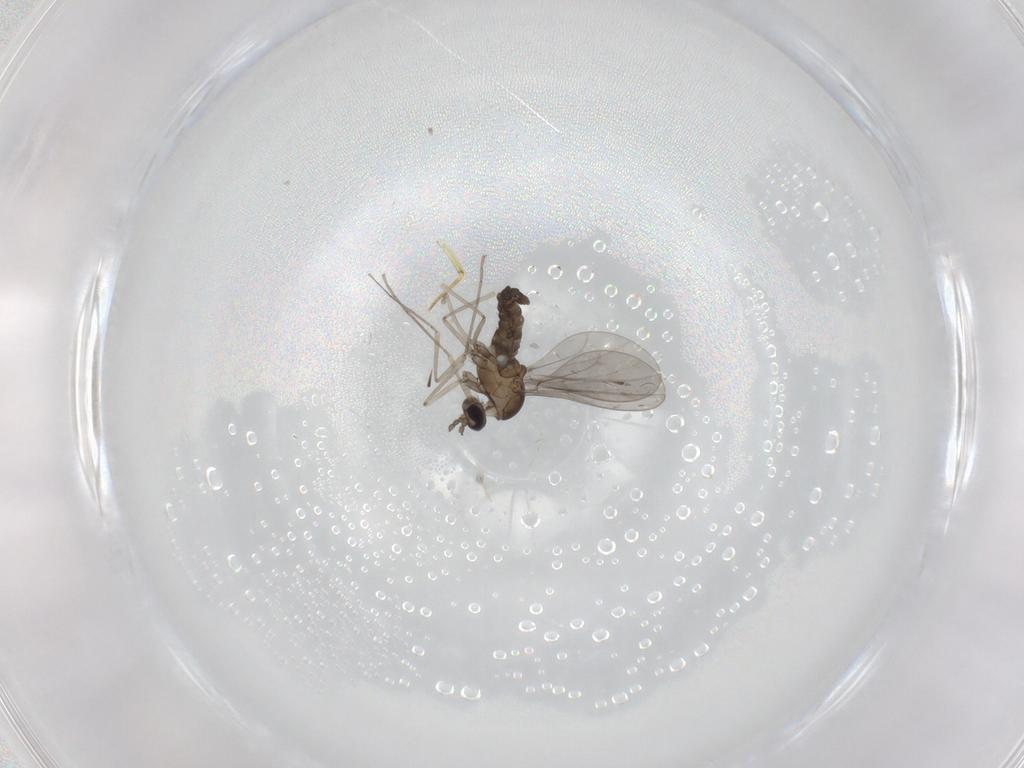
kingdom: Animalia
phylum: Arthropoda
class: Insecta
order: Diptera
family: Cecidomyiidae
